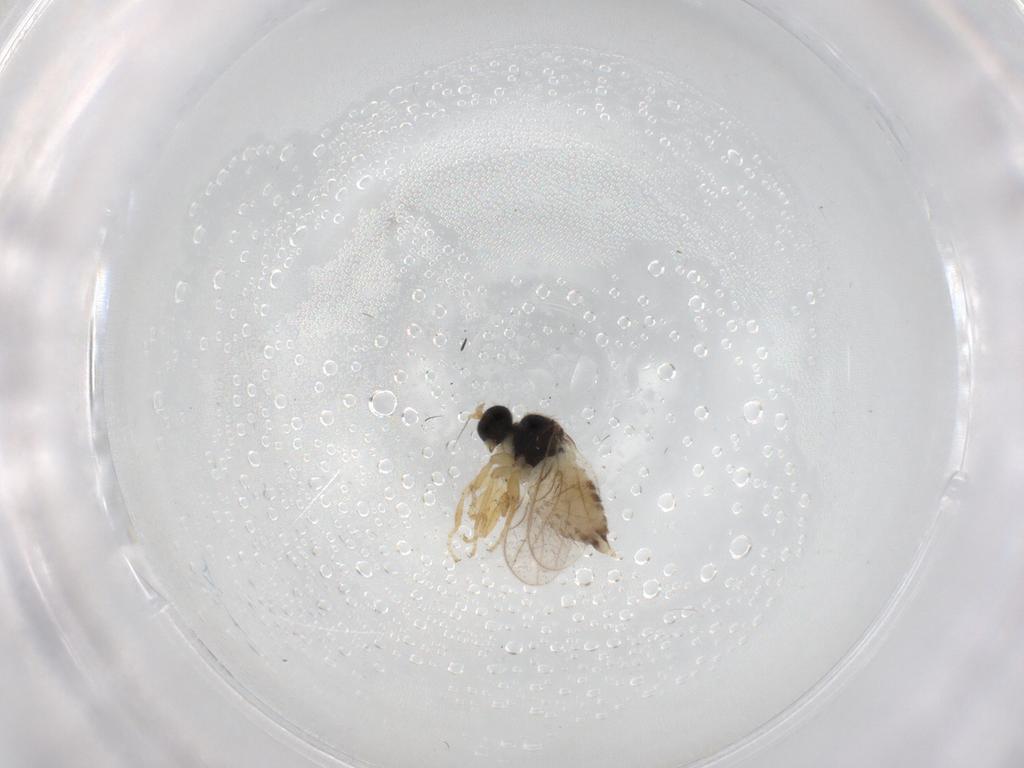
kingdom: Animalia
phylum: Arthropoda
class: Insecta
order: Diptera
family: Hybotidae
